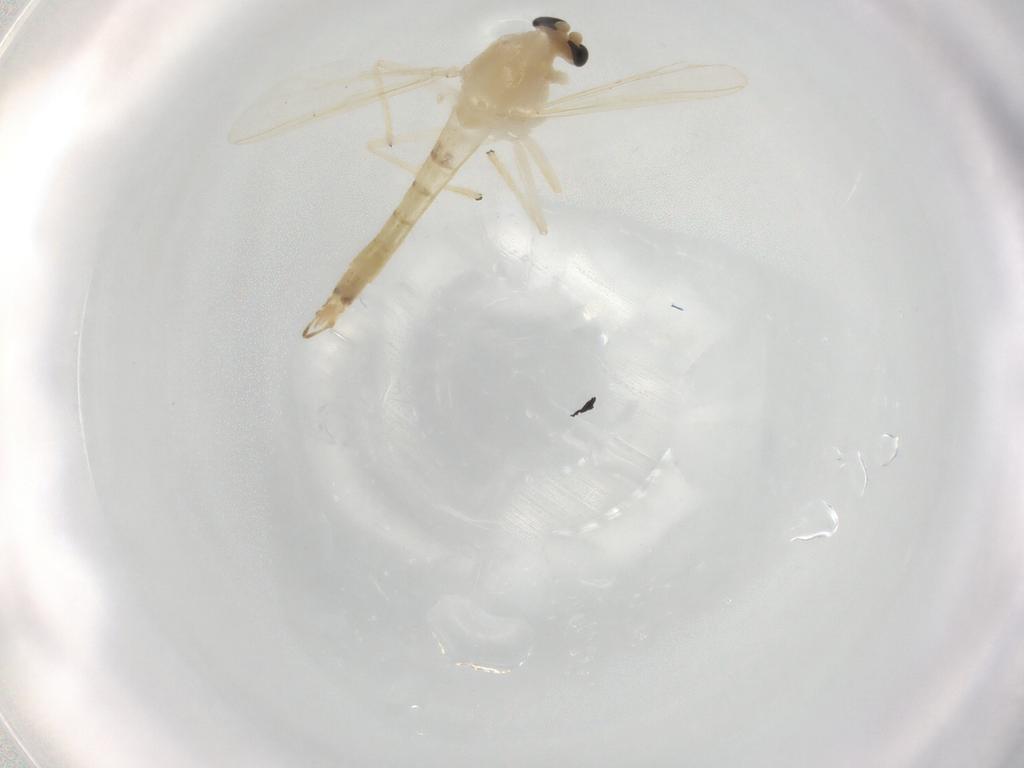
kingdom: Animalia
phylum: Arthropoda
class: Insecta
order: Diptera
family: Chironomidae
